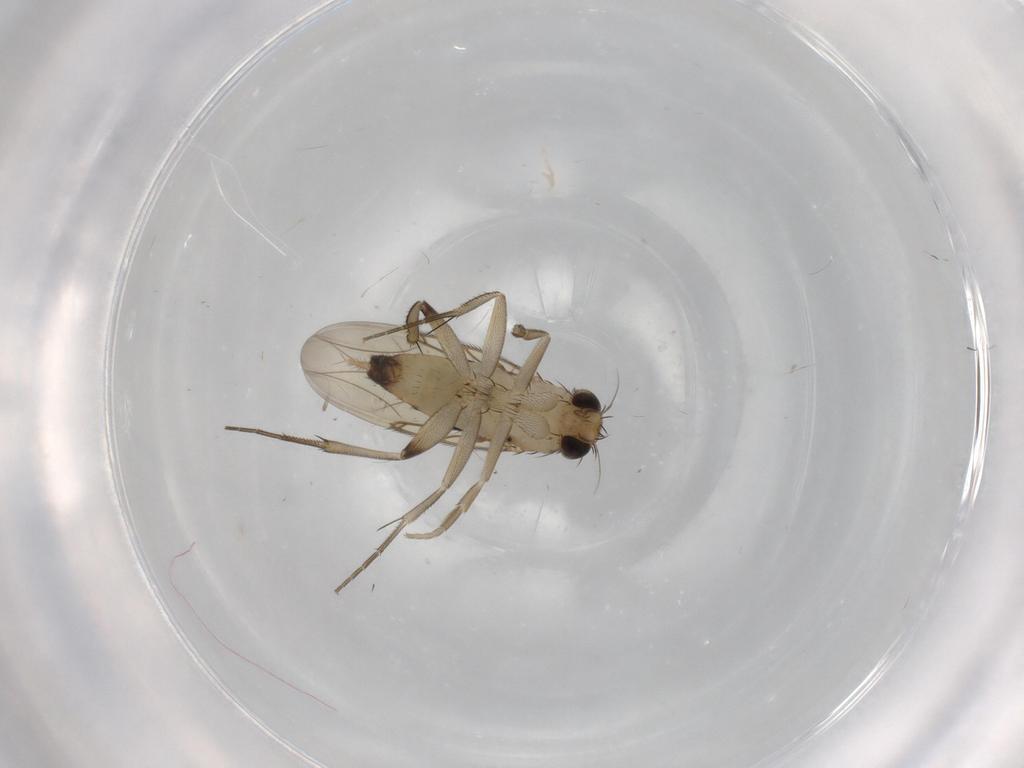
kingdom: Animalia
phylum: Arthropoda
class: Insecta
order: Diptera
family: Phoridae
